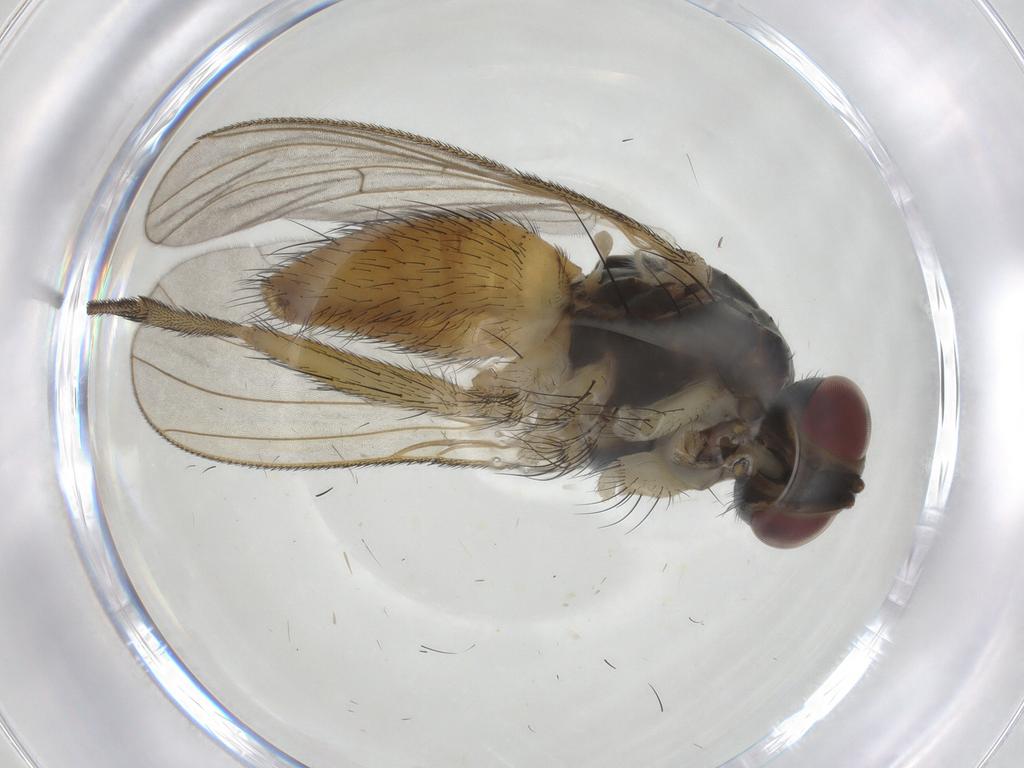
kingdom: Animalia
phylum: Arthropoda
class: Insecta
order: Diptera
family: Muscidae
